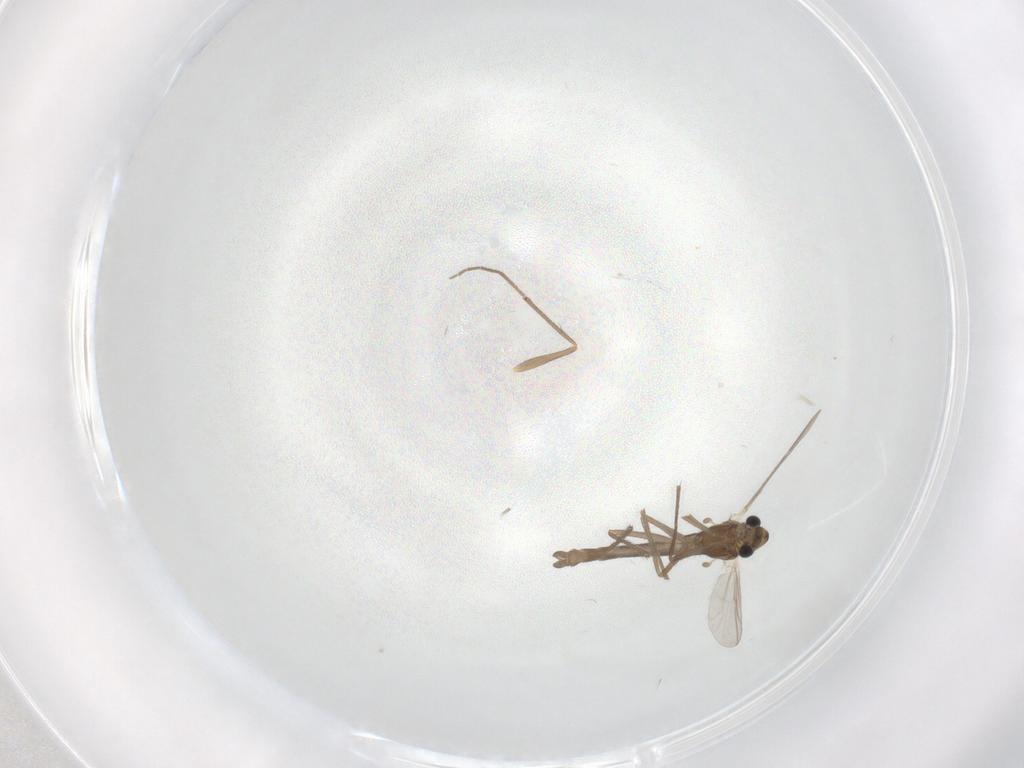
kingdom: Animalia
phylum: Arthropoda
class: Insecta
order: Diptera
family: Chironomidae
